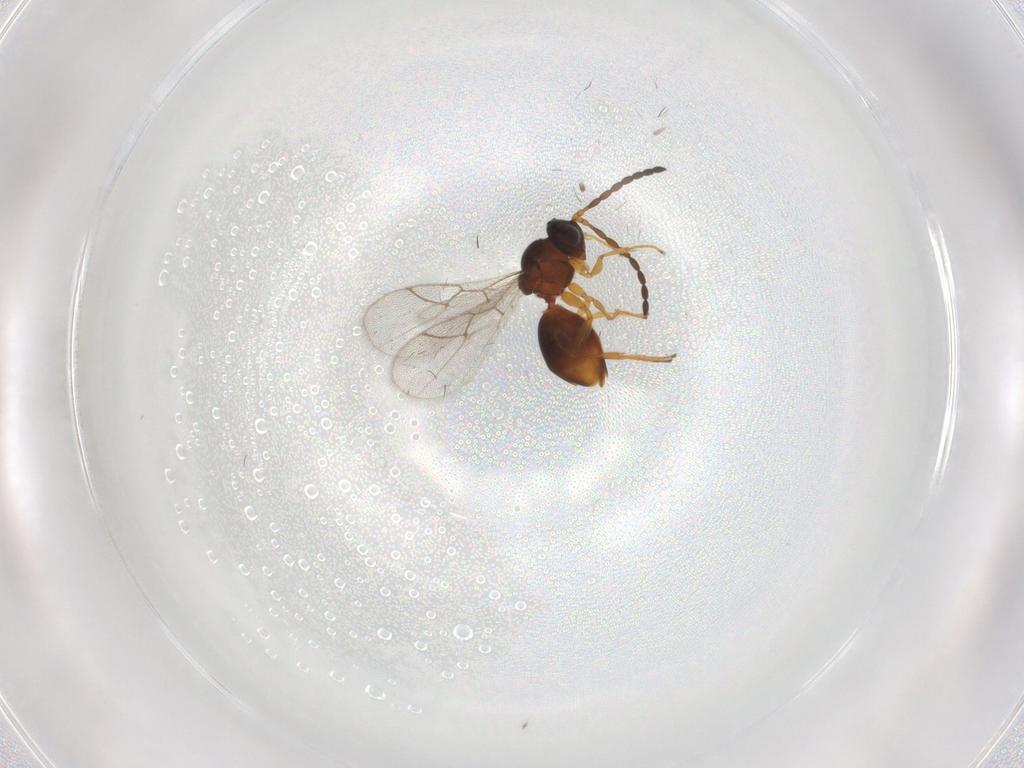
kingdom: Animalia
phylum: Arthropoda
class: Insecta
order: Hymenoptera
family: Figitidae
